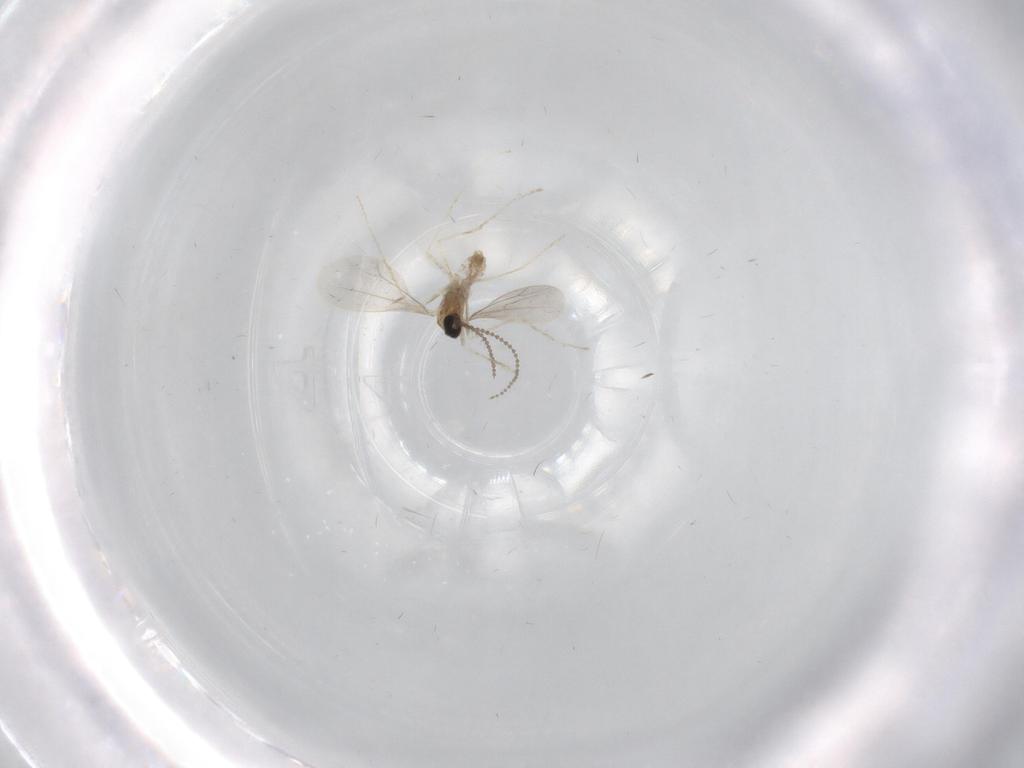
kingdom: Animalia
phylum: Arthropoda
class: Insecta
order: Diptera
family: Cecidomyiidae
